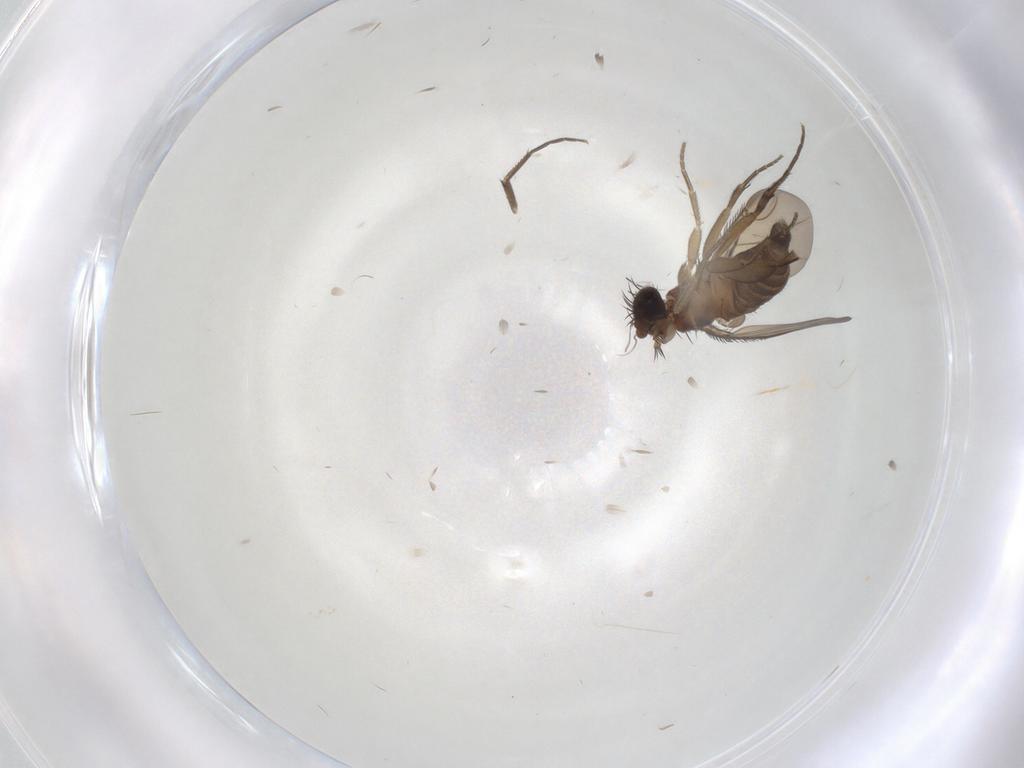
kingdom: Animalia
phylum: Arthropoda
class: Insecta
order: Diptera
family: Phoridae
